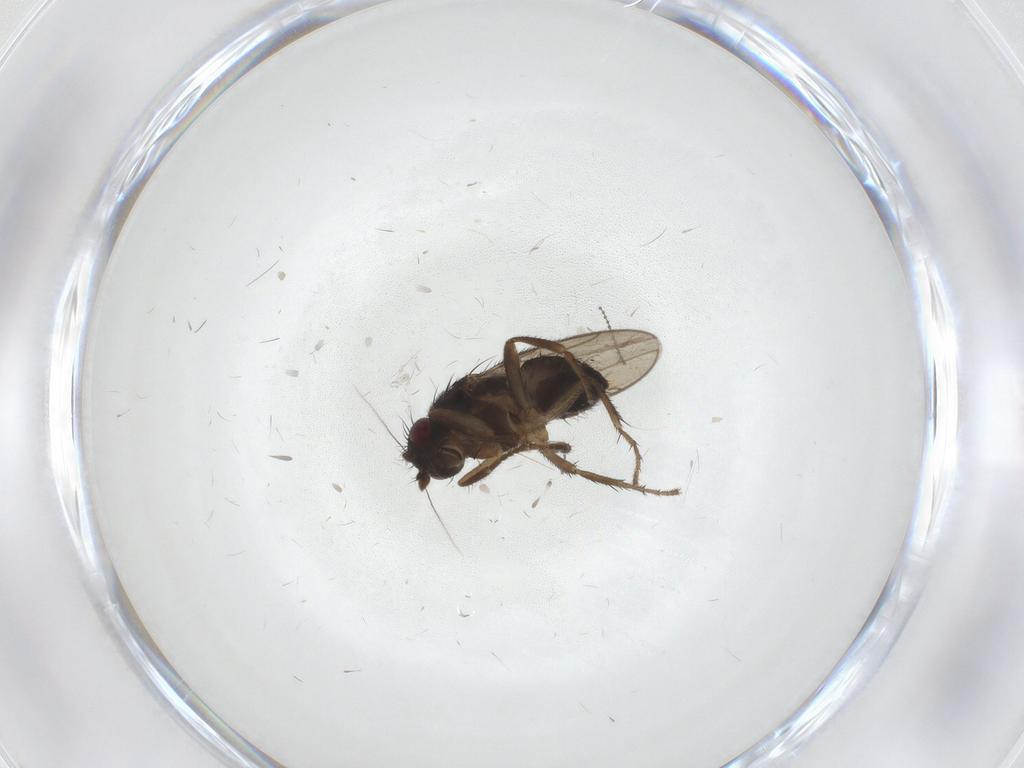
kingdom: Animalia
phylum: Arthropoda
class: Insecta
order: Diptera
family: Sphaeroceridae
